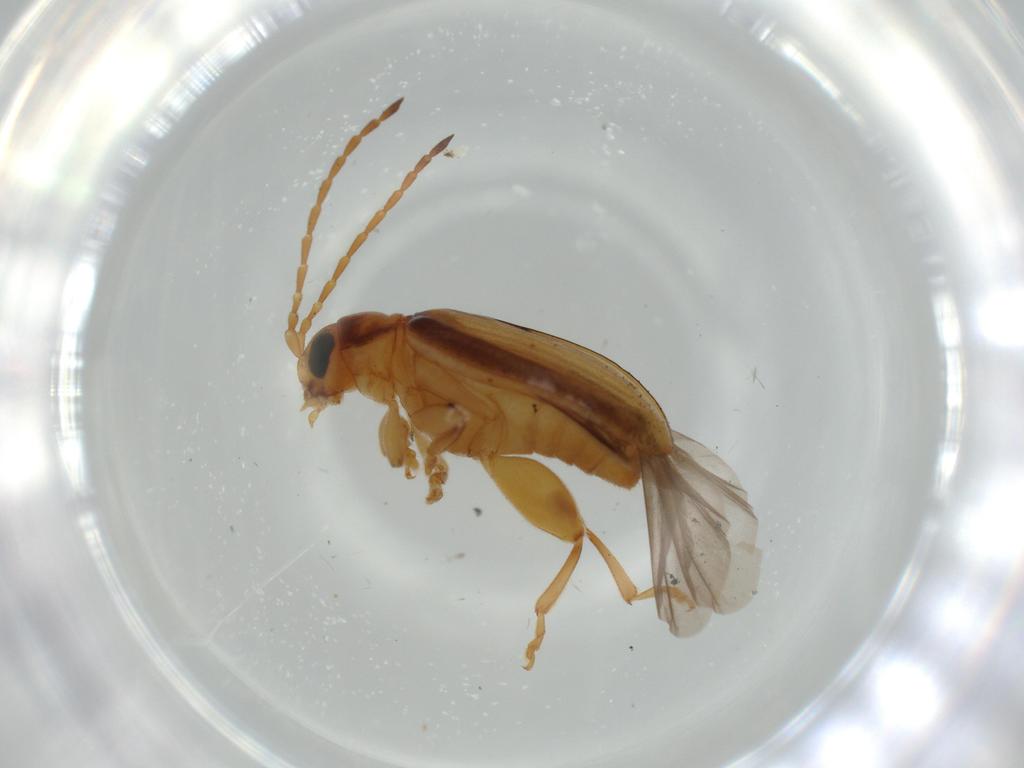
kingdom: Animalia
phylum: Arthropoda
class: Insecta
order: Coleoptera
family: Chrysomelidae
